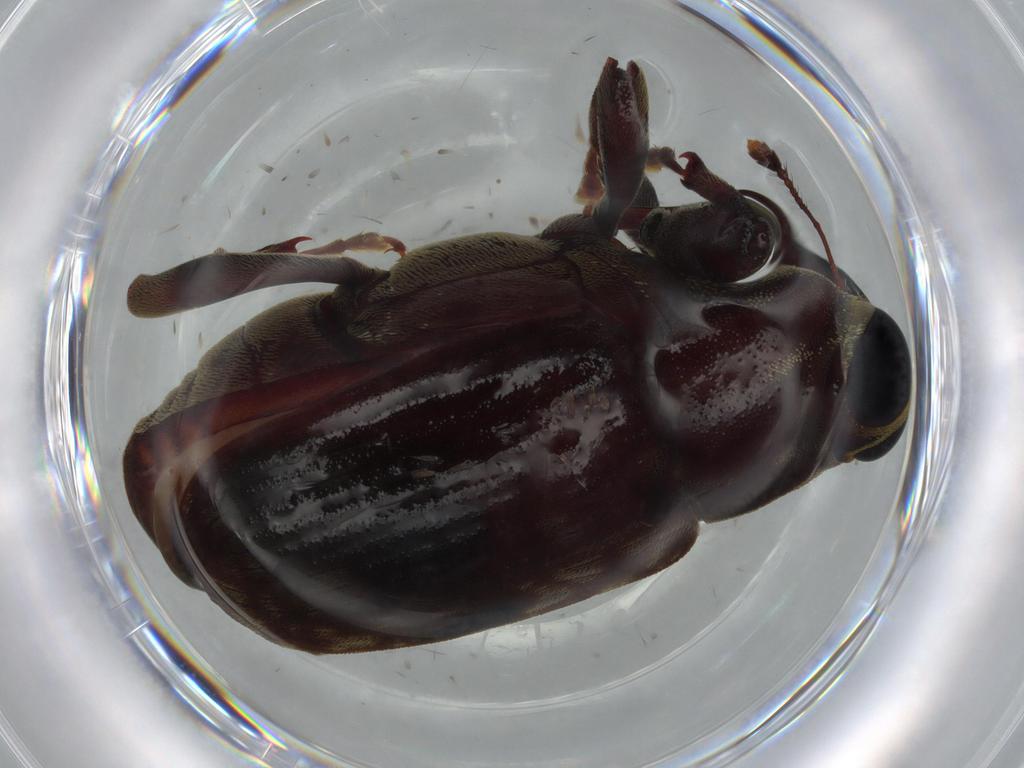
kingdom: Animalia
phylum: Arthropoda
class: Insecta
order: Coleoptera
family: Curculionidae
